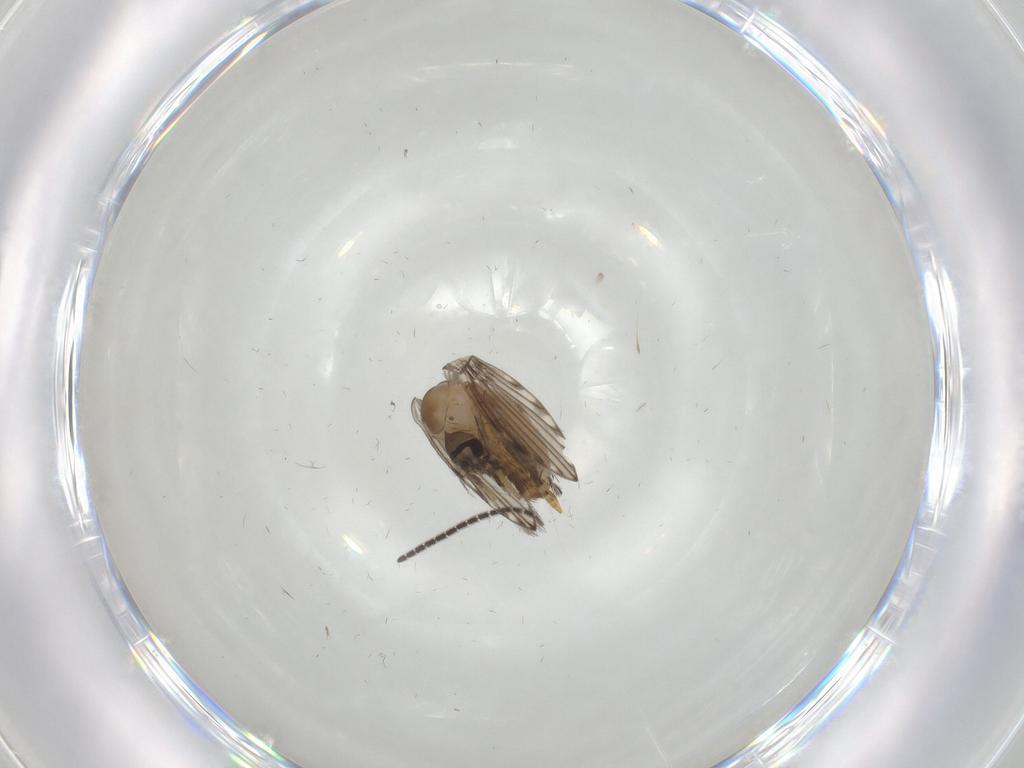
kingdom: Animalia
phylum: Arthropoda
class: Insecta
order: Diptera
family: Psychodidae
